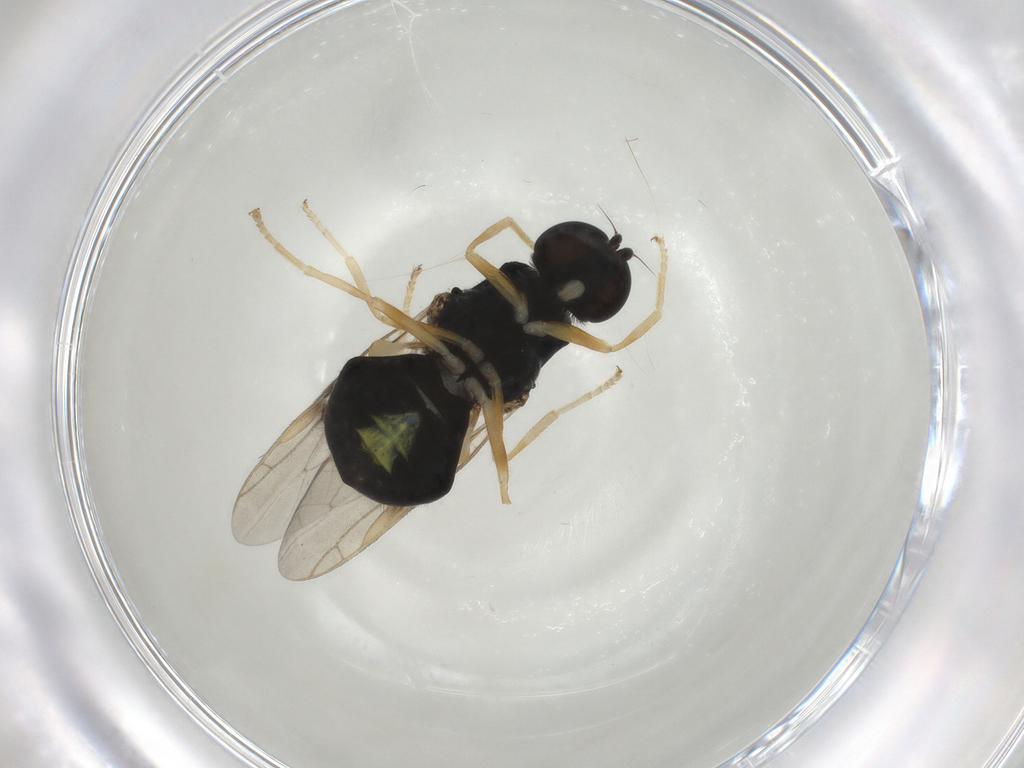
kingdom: Animalia
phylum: Arthropoda
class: Insecta
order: Diptera
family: Stratiomyidae
